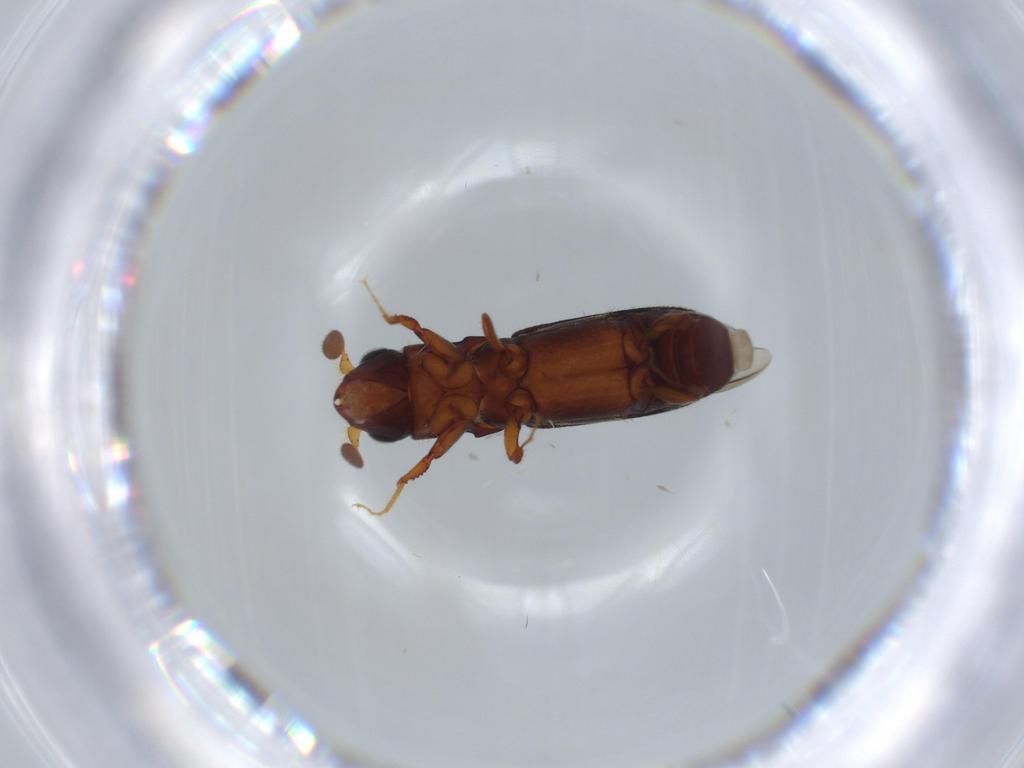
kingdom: Animalia
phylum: Arthropoda
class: Insecta
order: Coleoptera
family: Curculionidae
